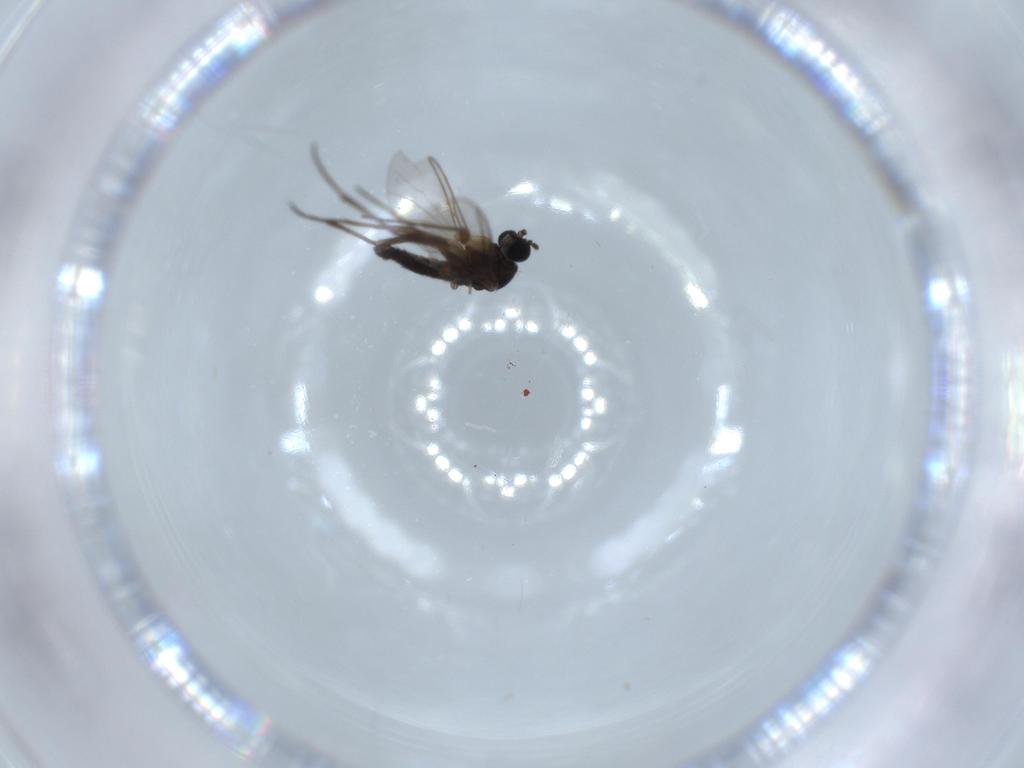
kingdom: Animalia
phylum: Arthropoda
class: Insecta
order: Diptera
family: Sciaridae
